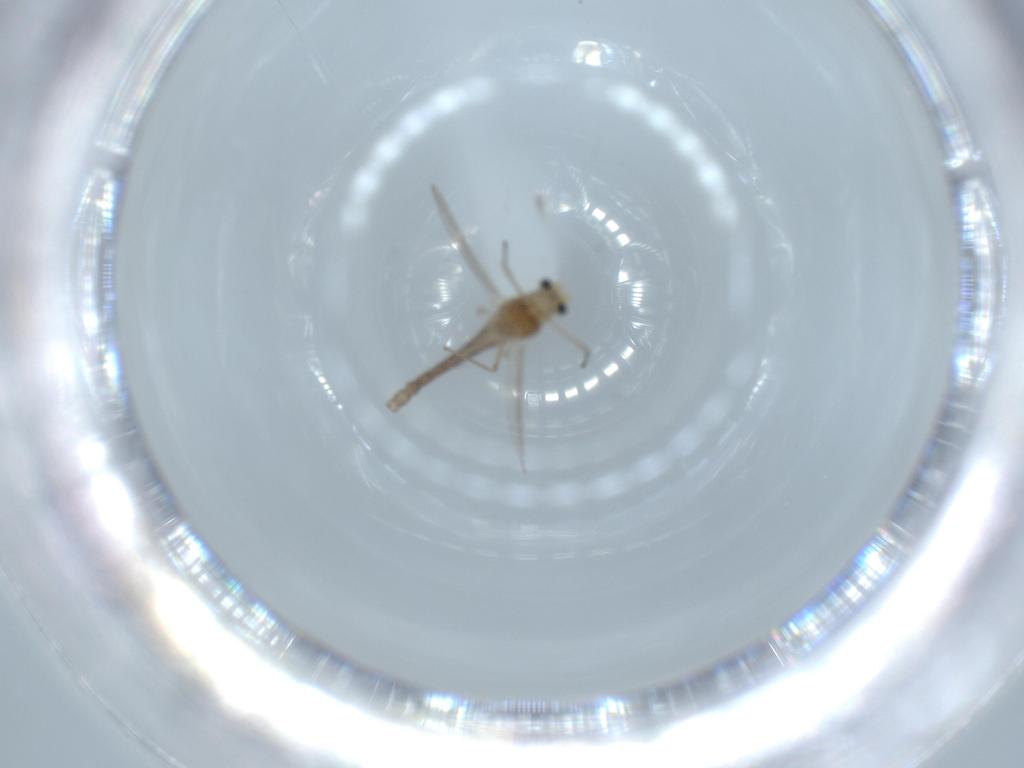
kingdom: Animalia
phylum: Arthropoda
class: Insecta
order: Diptera
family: Chironomidae
